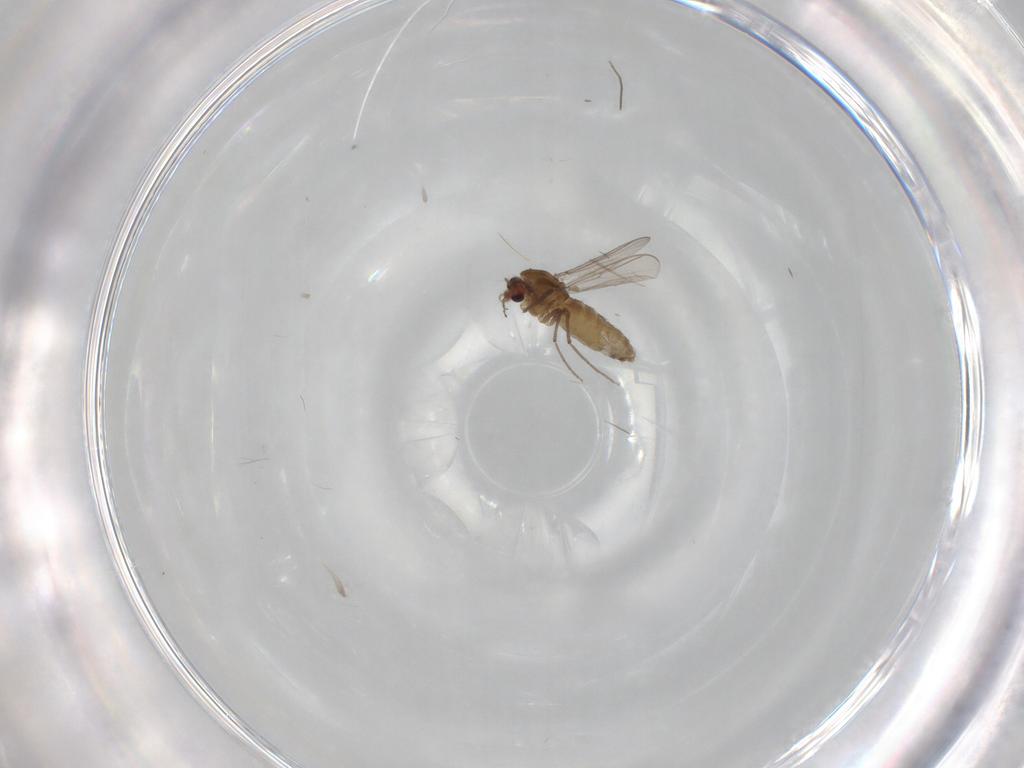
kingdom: Animalia
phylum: Arthropoda
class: Insecta
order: Diptera
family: Chironomidae
